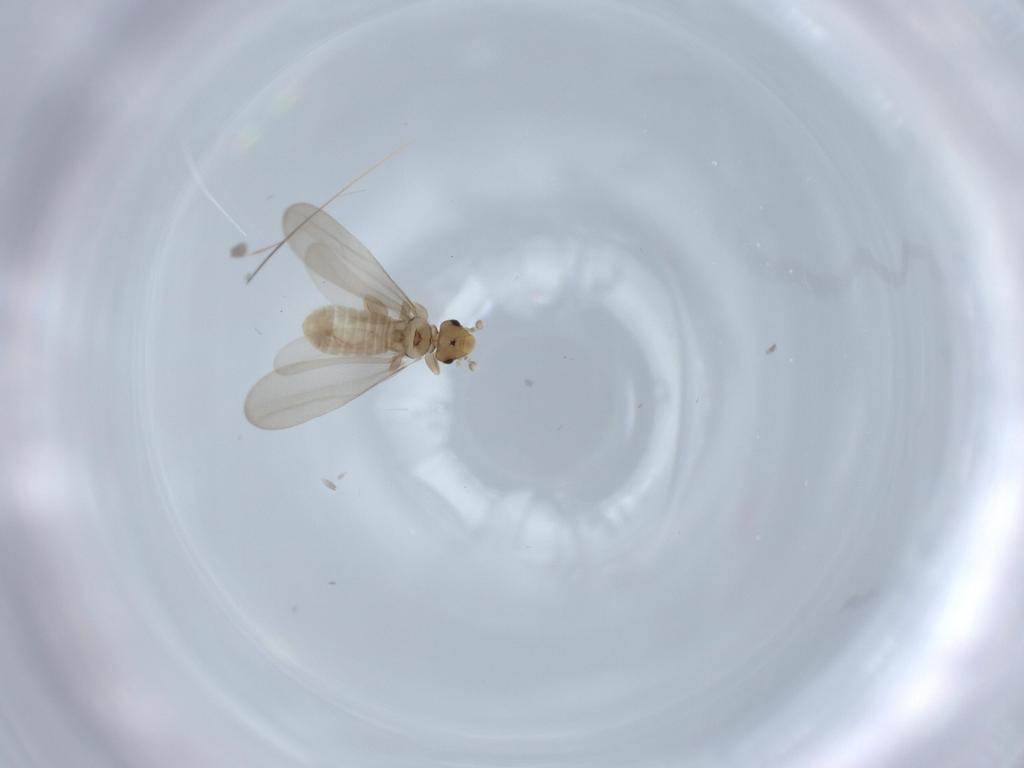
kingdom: Animalia
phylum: Arthropoda
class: Insecta
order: Psocodea
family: Liposcelididae
